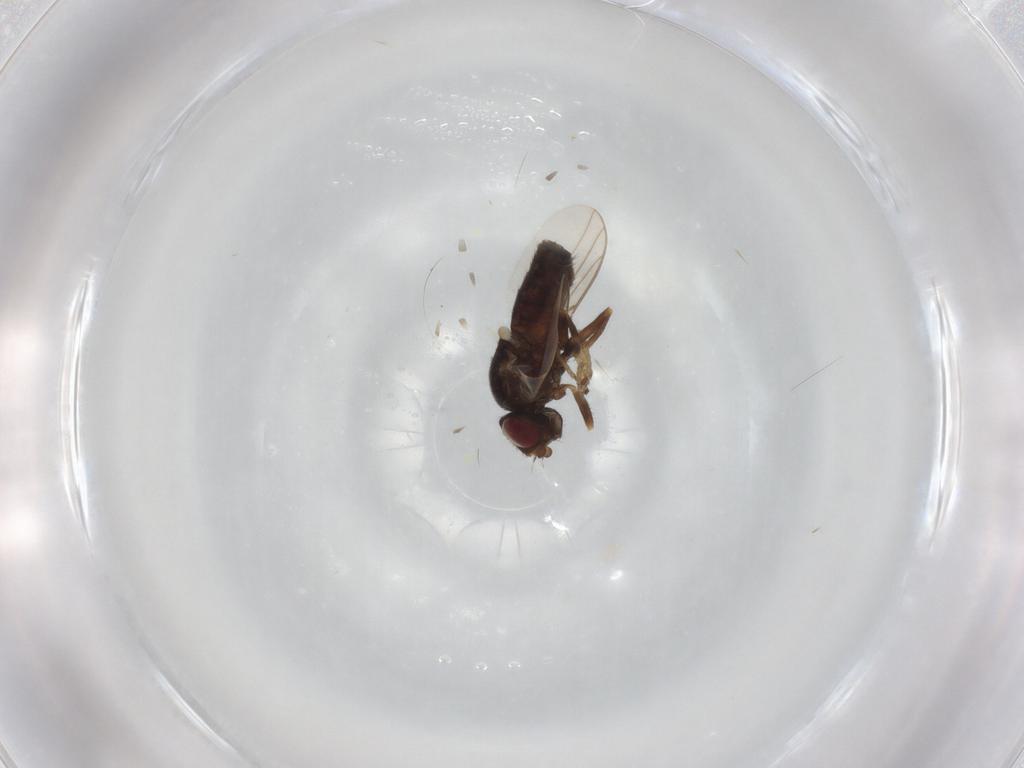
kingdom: Animalia
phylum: Arthropoda
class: Insecta
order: Diptera
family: Chloropidae
